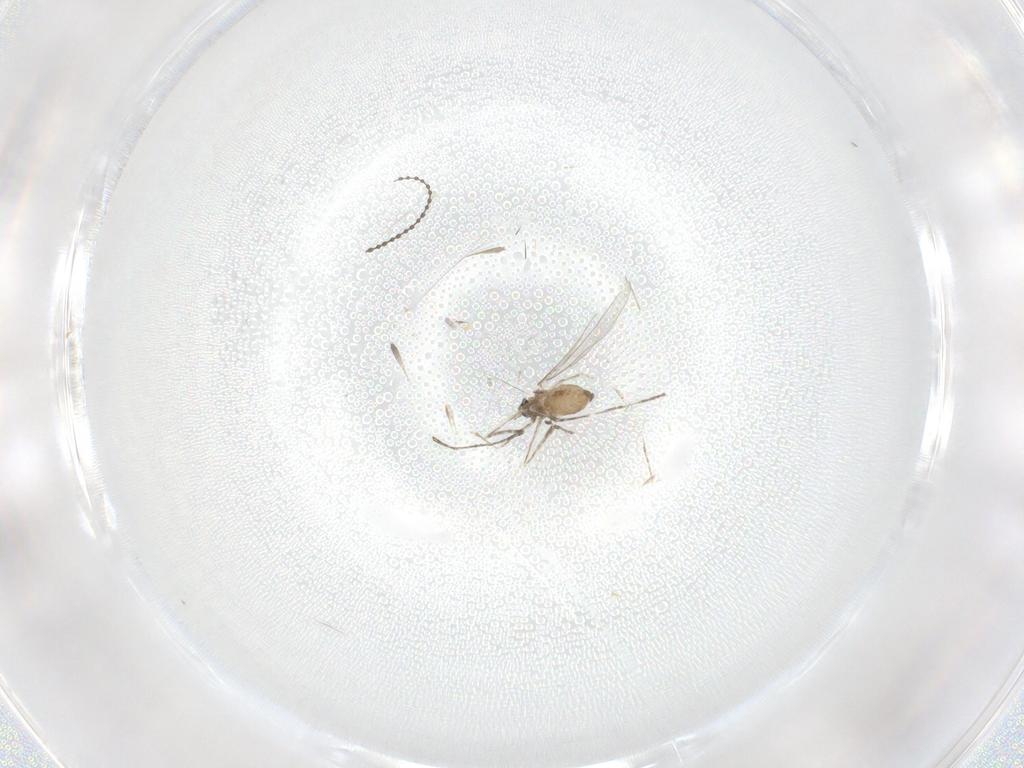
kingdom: Animalia
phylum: Arthropoda
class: Insecta
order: Diptera
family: Cecidomyiidae
